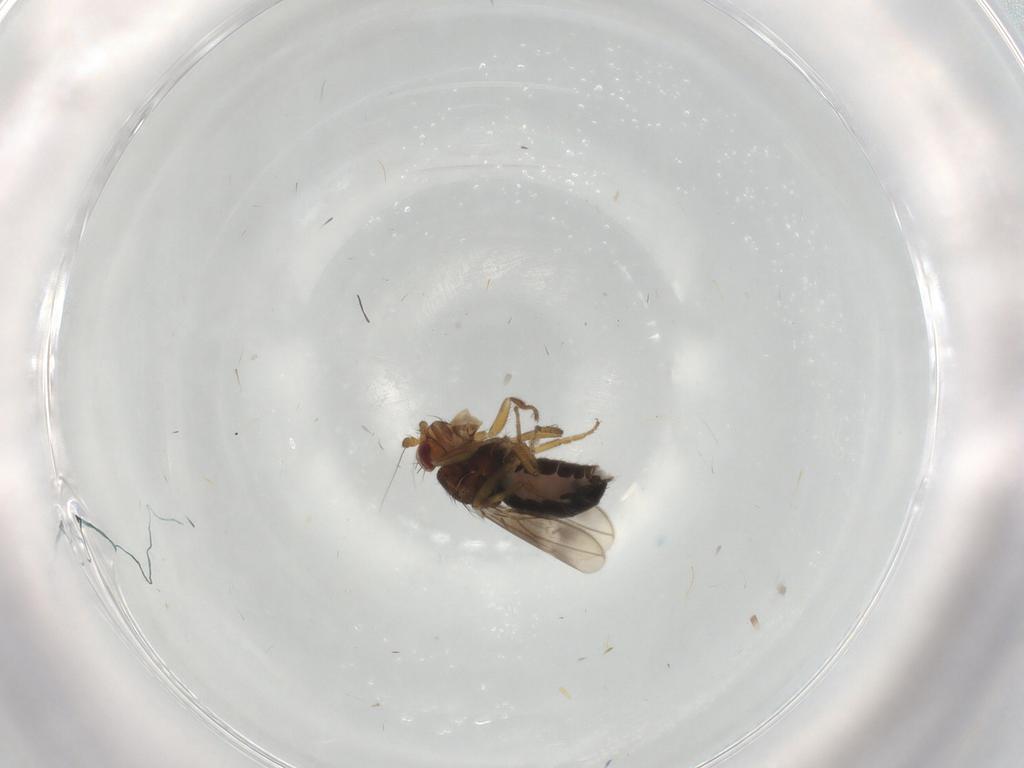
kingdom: Animalia
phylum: Arthropoda
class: Insecta
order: Diptera
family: Sphaeroceridae
